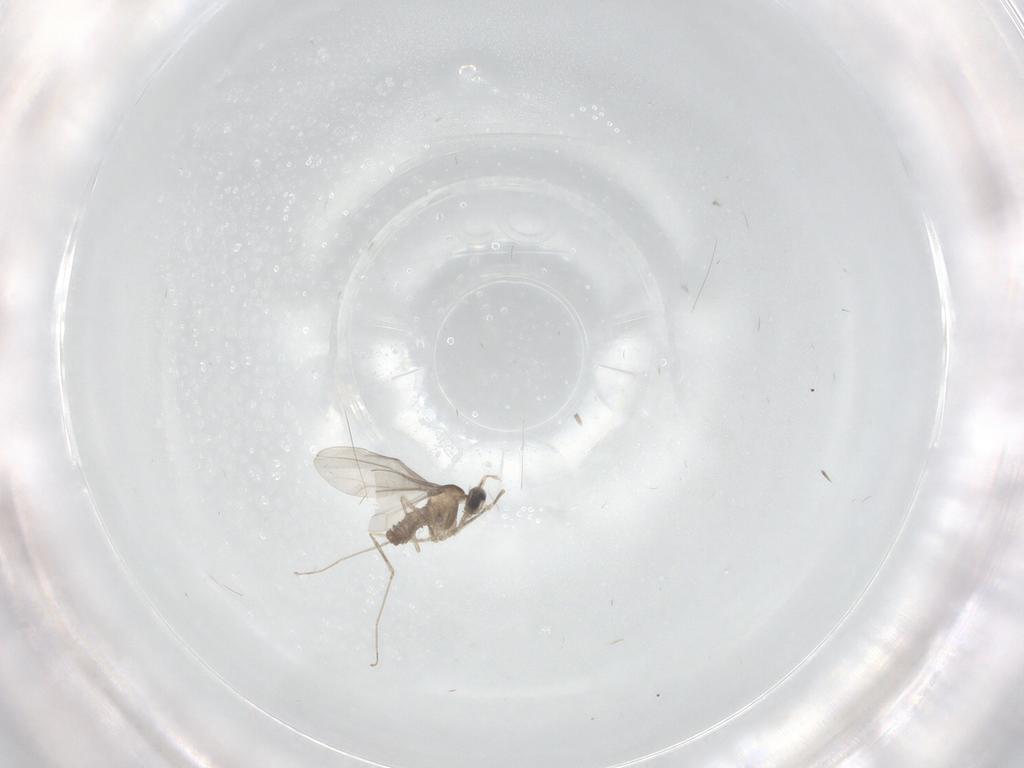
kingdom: Animalia
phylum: Arthropoda
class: Insecta
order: Diptera
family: Cecidomyiidae
